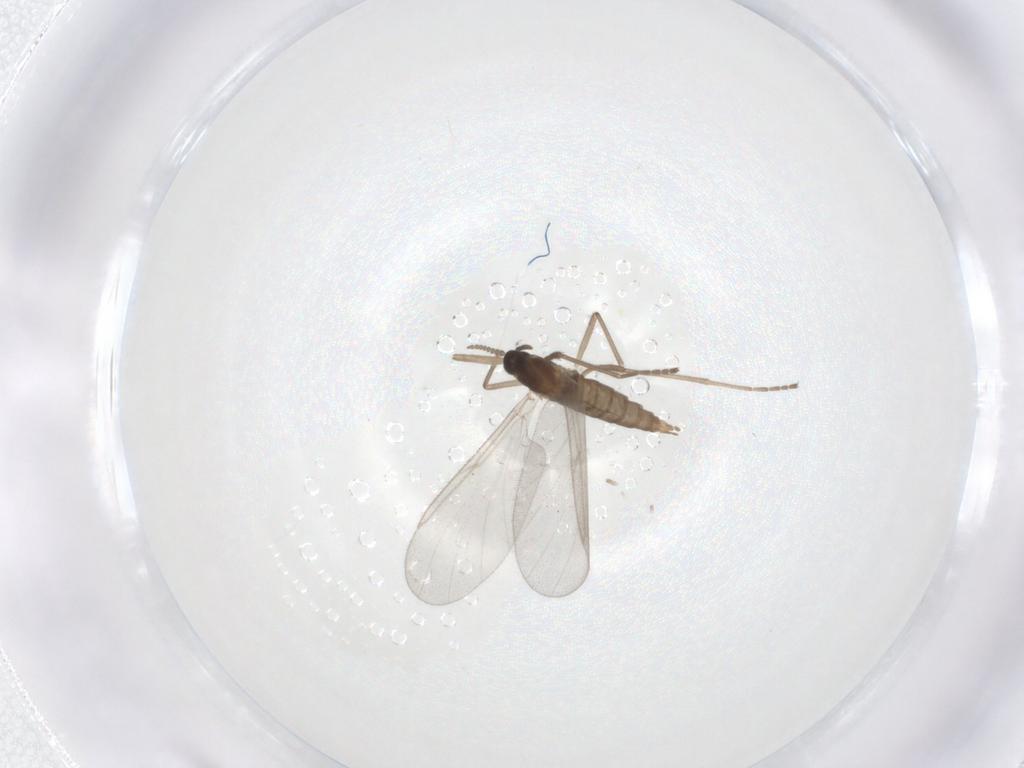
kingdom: Animalia
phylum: Arthropoda
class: Insecta
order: Diptera
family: Cecidomyiidae
